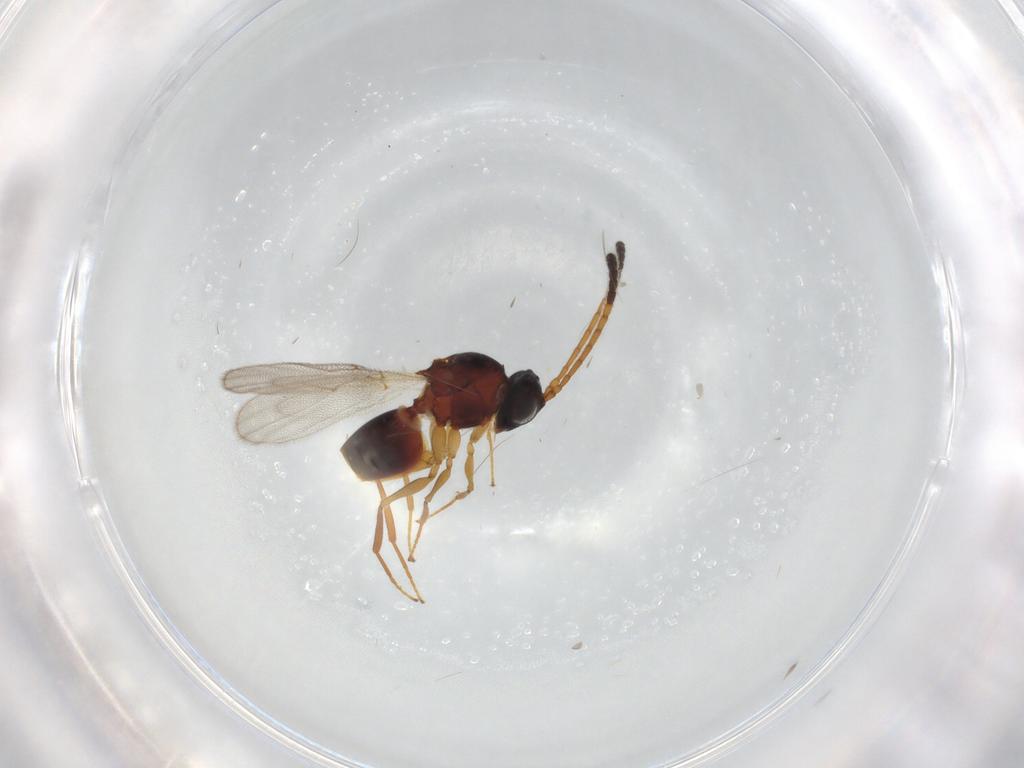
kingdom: Animalia
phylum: Arthropoda
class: Insecta
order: Hymenoptera
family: Figitidae
